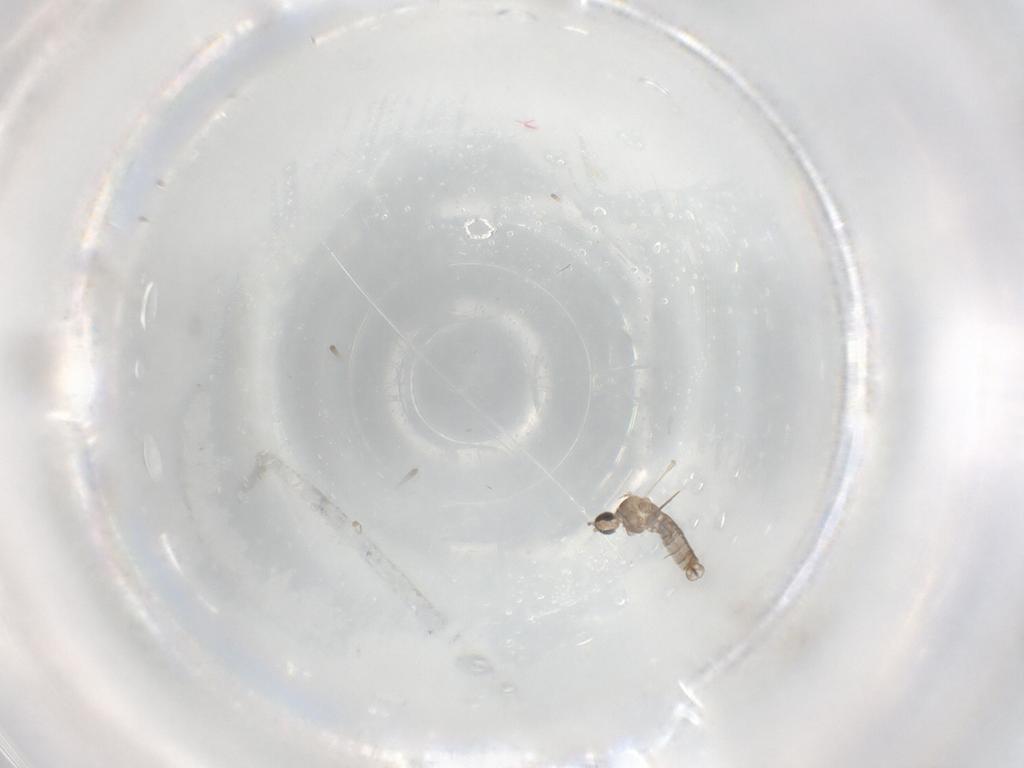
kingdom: Animalia
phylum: Arthropoda
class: Insecta
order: Diptera
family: Cecidomyiidae
